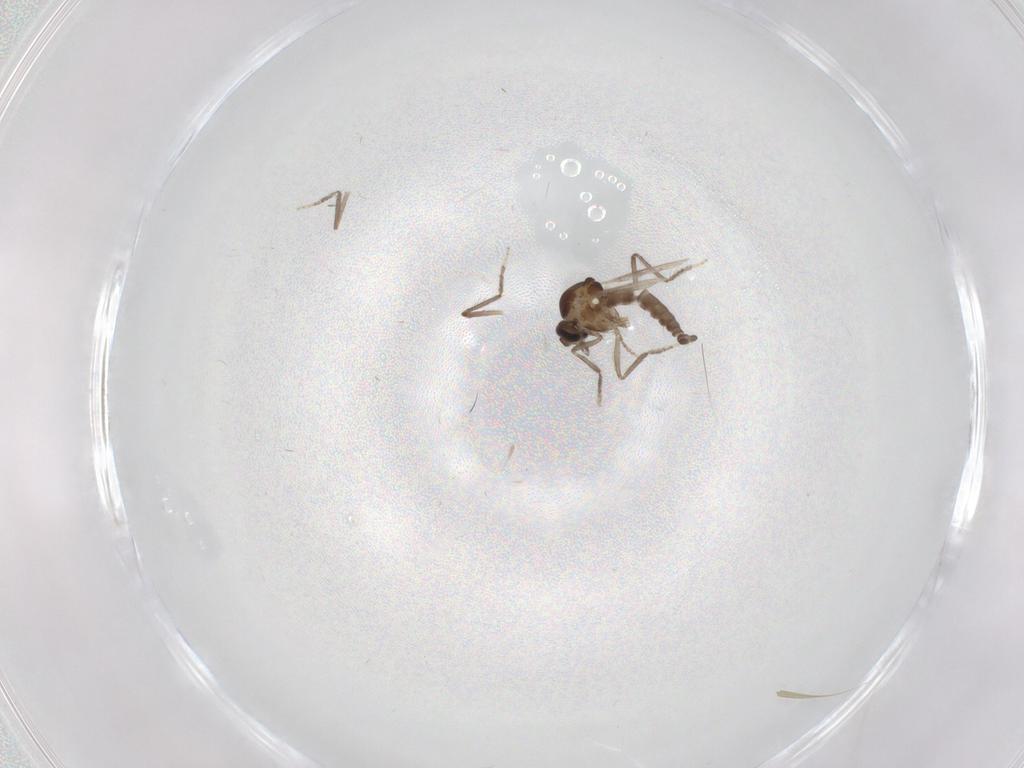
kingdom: Animalia
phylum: Arthropoda
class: Insecta
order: Diptera
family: Ceratopogonidae
